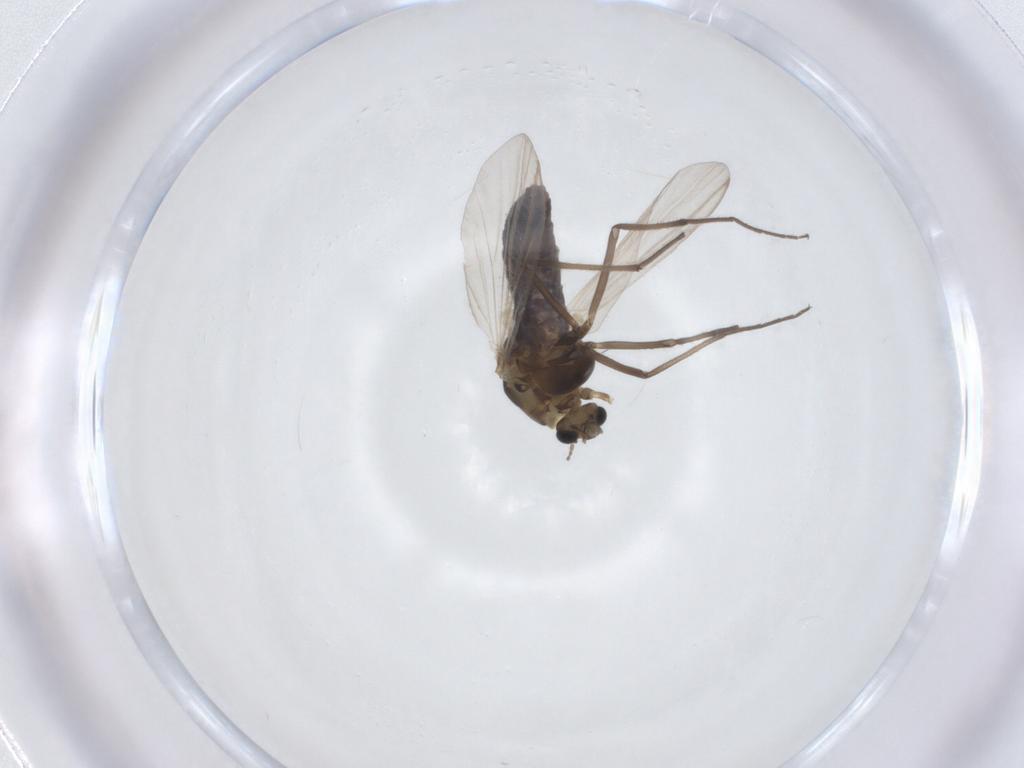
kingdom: Animalia
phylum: Arthropoda
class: Insecta
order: Diptera
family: Chironomidae
